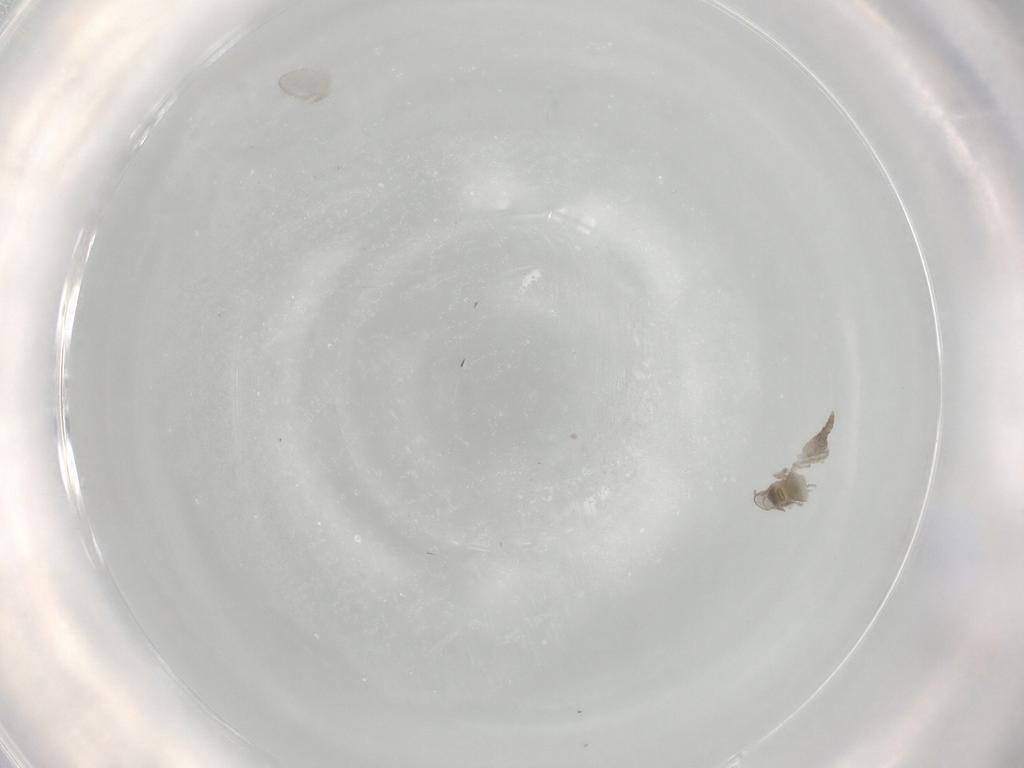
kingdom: Animalia
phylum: Arthropoda
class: Insecta
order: Diptera
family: Cecidomyiidae
